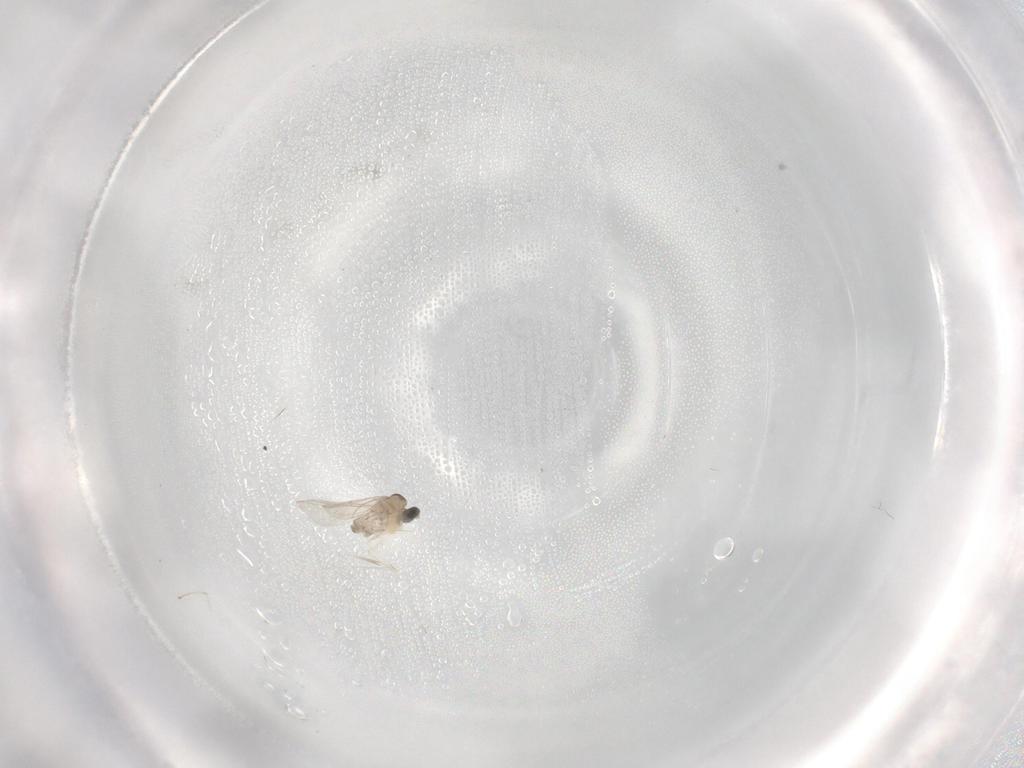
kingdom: Animalia
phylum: Arthropoda
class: Insecta
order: Diptera
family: Cecidomyiidae
